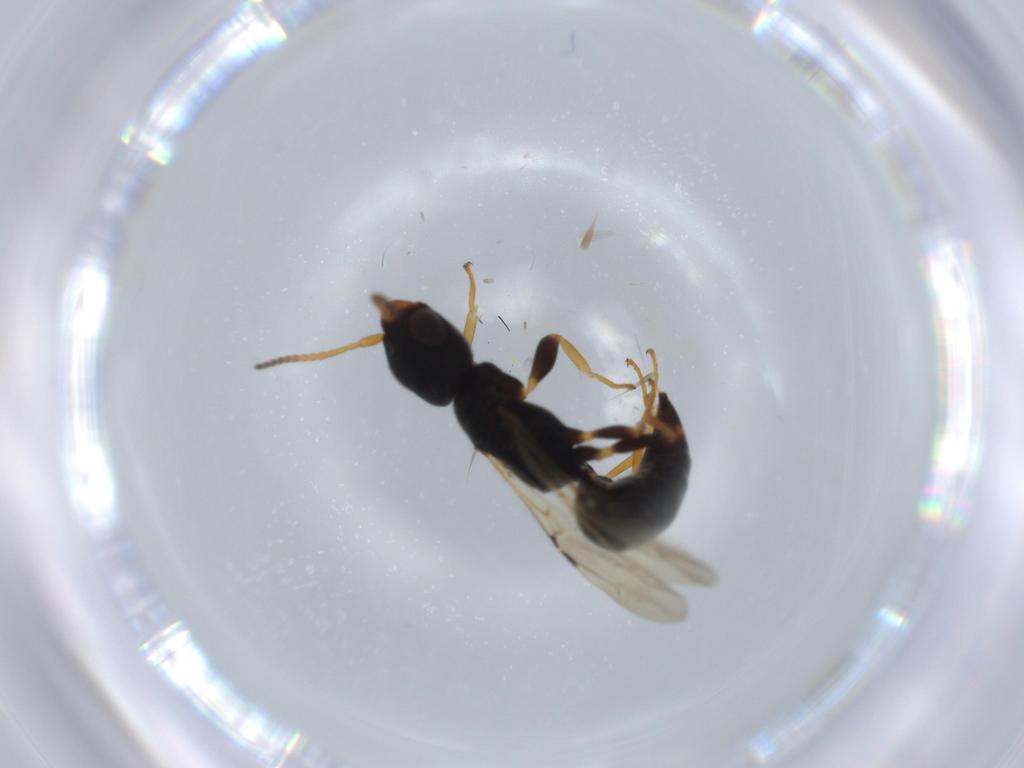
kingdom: Animalia
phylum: Arthropoda
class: Insecta
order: Hymenoptera
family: Bethylidae
